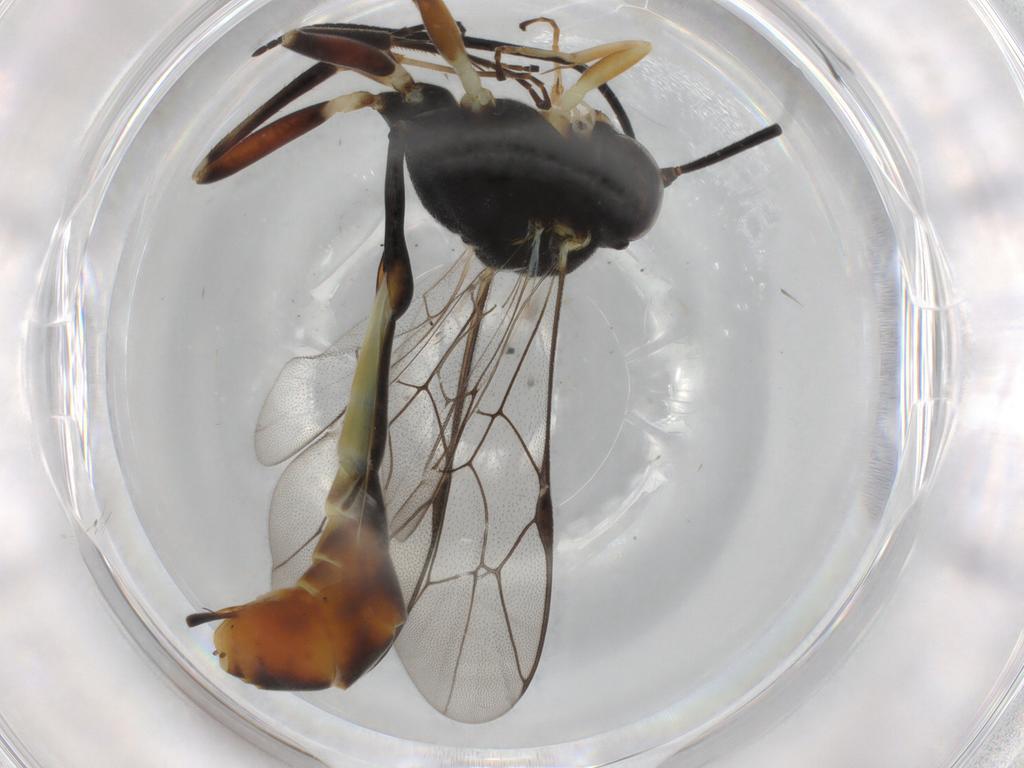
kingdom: Animalia
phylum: Arthropoda
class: Insecta
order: Hymenoptera
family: Ichneumonidae
